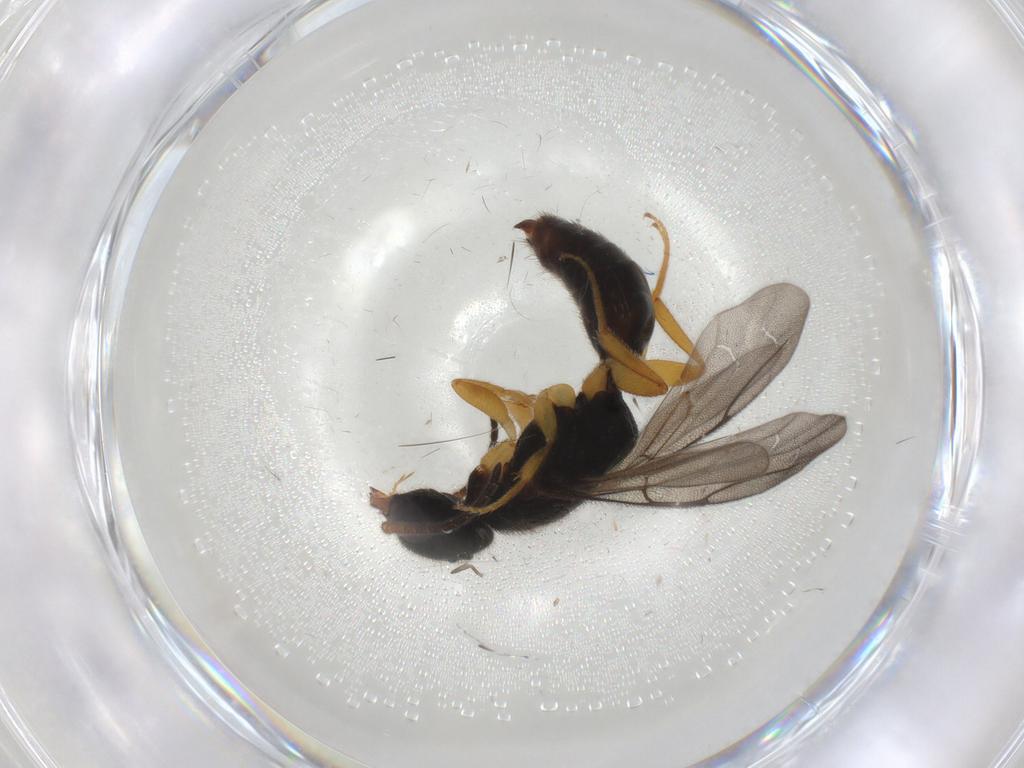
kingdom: Animalia
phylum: Arthropoda
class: Insecta
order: Hymenoptera
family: Bethylidae
